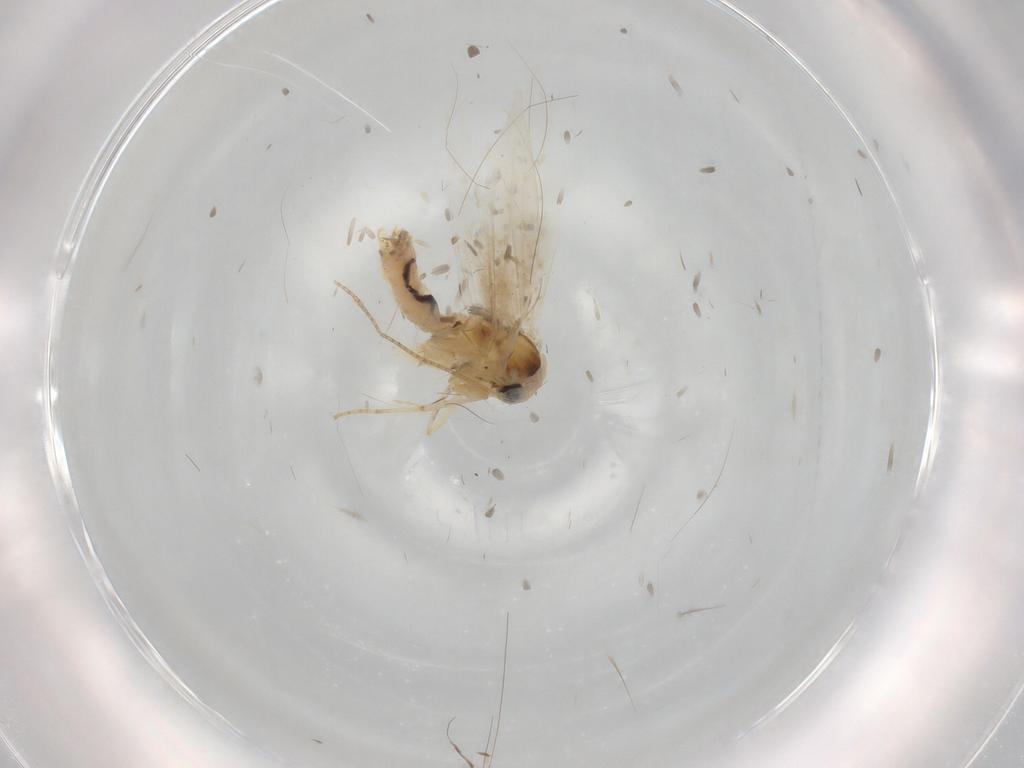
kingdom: Animalia
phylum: Arthropoda
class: Insecta
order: Lepidoptera
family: Bucculatricidae
